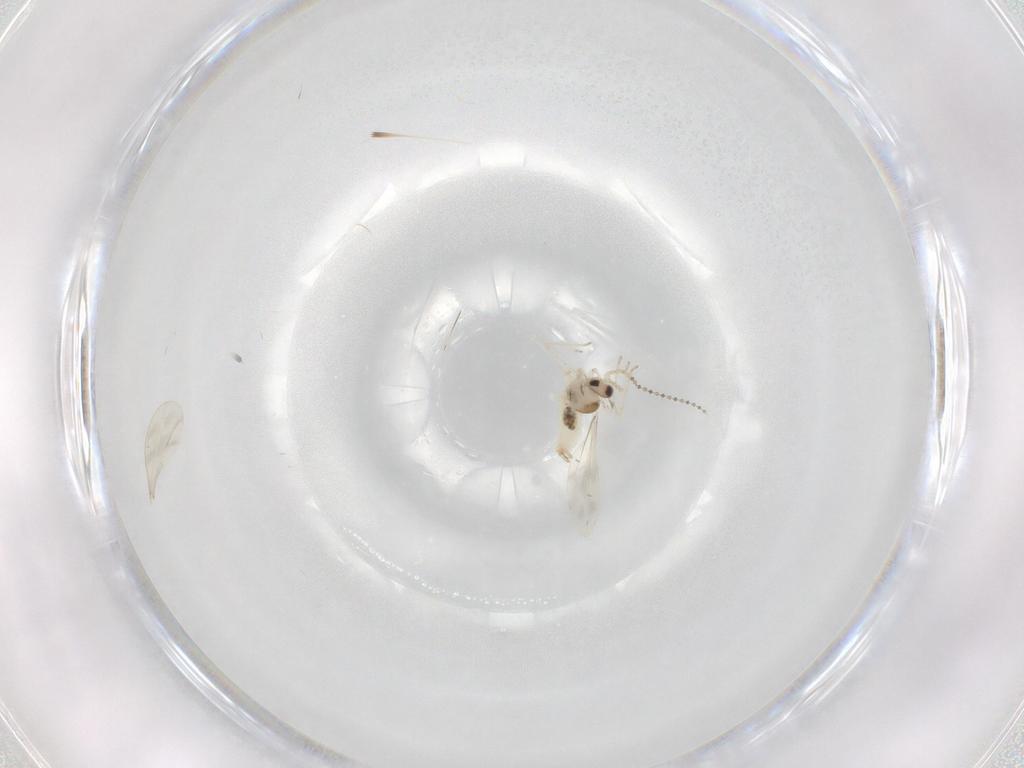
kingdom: Animalia
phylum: Arthropoda
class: Insecta
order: Diptera
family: Cecidomyiidae
